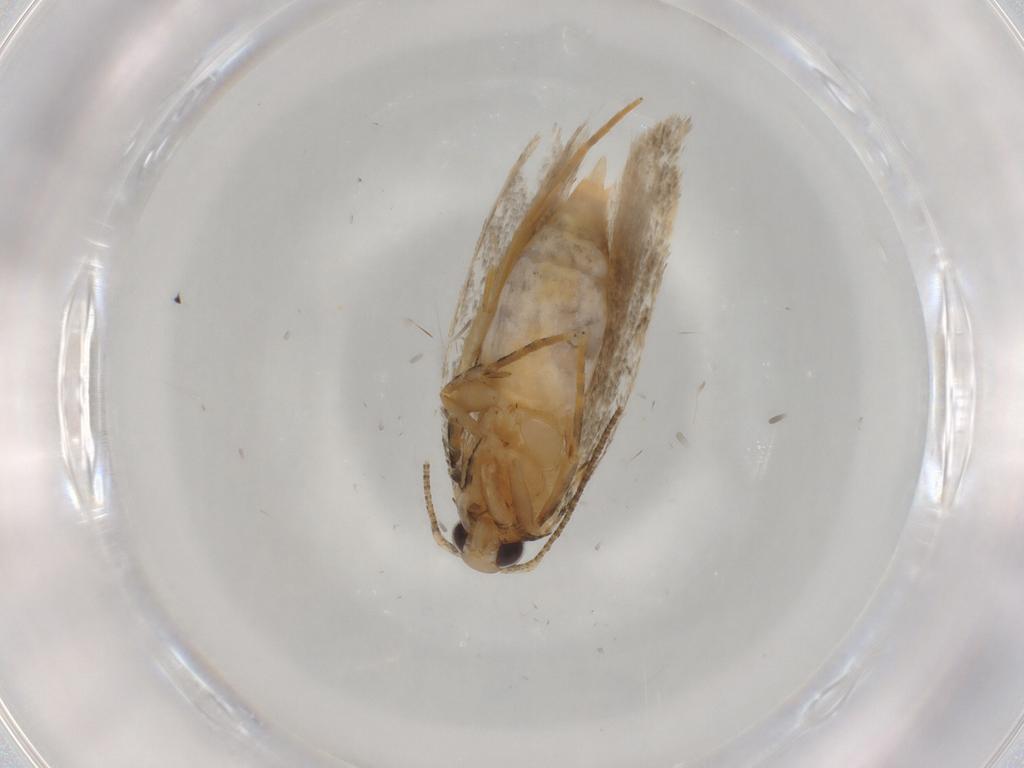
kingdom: Animalia
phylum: Arthropoda
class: Insecta
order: Lepidoptera
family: Autostichidae
